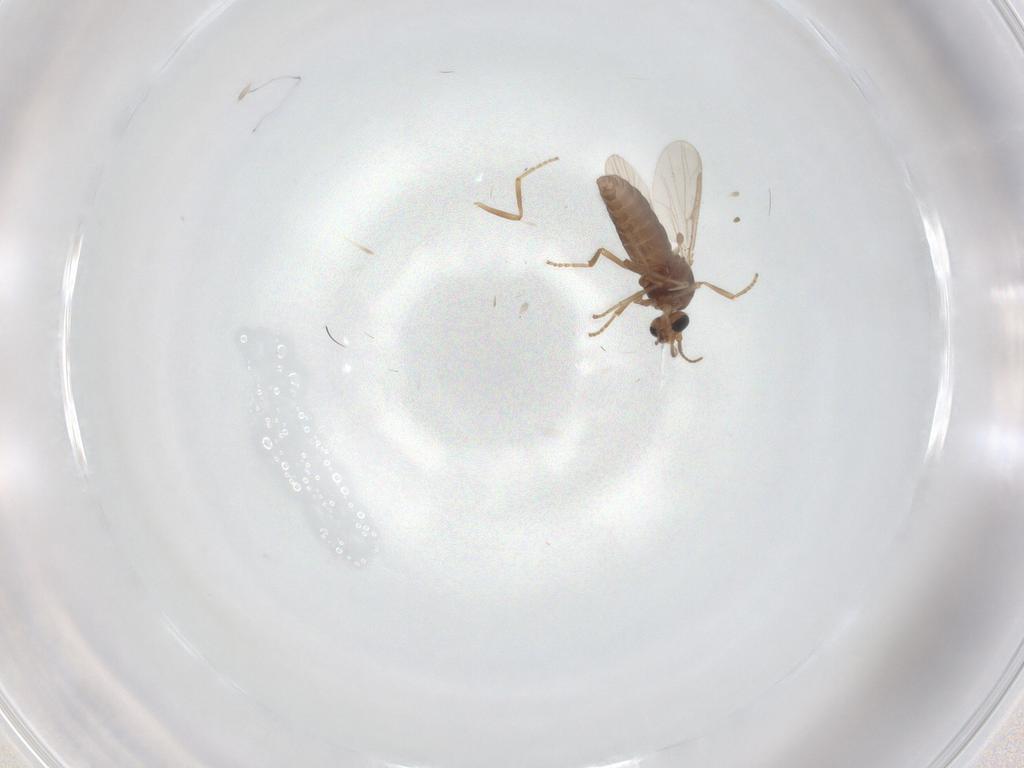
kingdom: Animalia
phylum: Arthropoda
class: Insecta
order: Diptera
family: Ceratopogonidae
